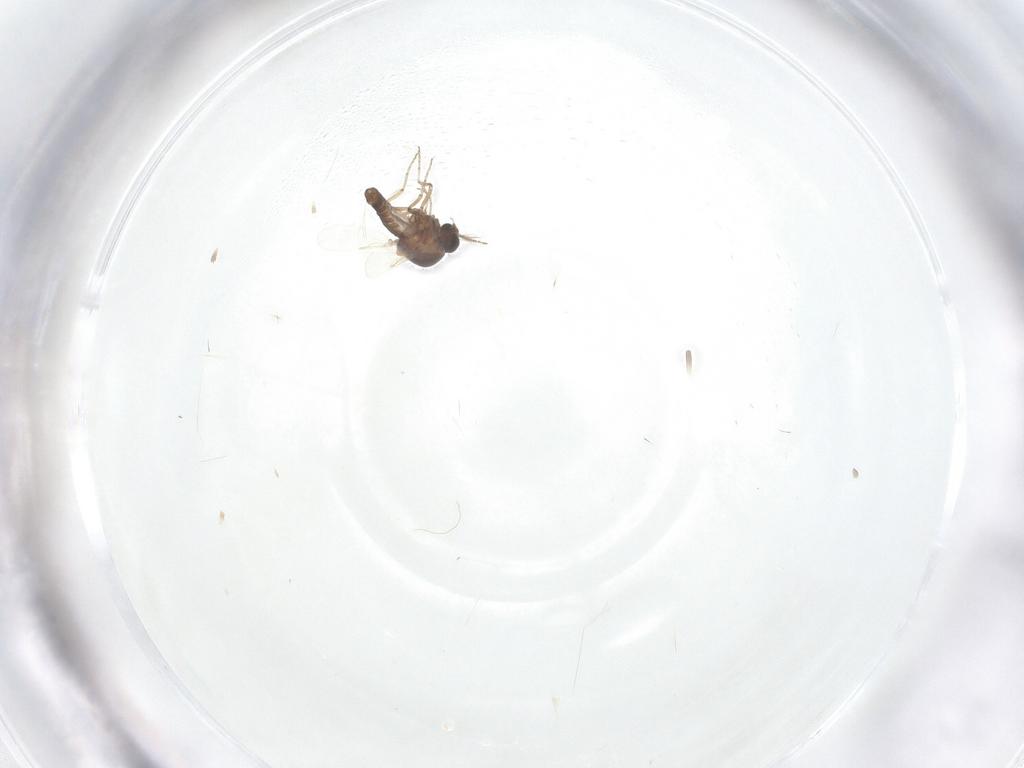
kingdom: Animalia
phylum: Arthropoda
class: Insecta
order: Diptera
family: Ceratopogonidae
